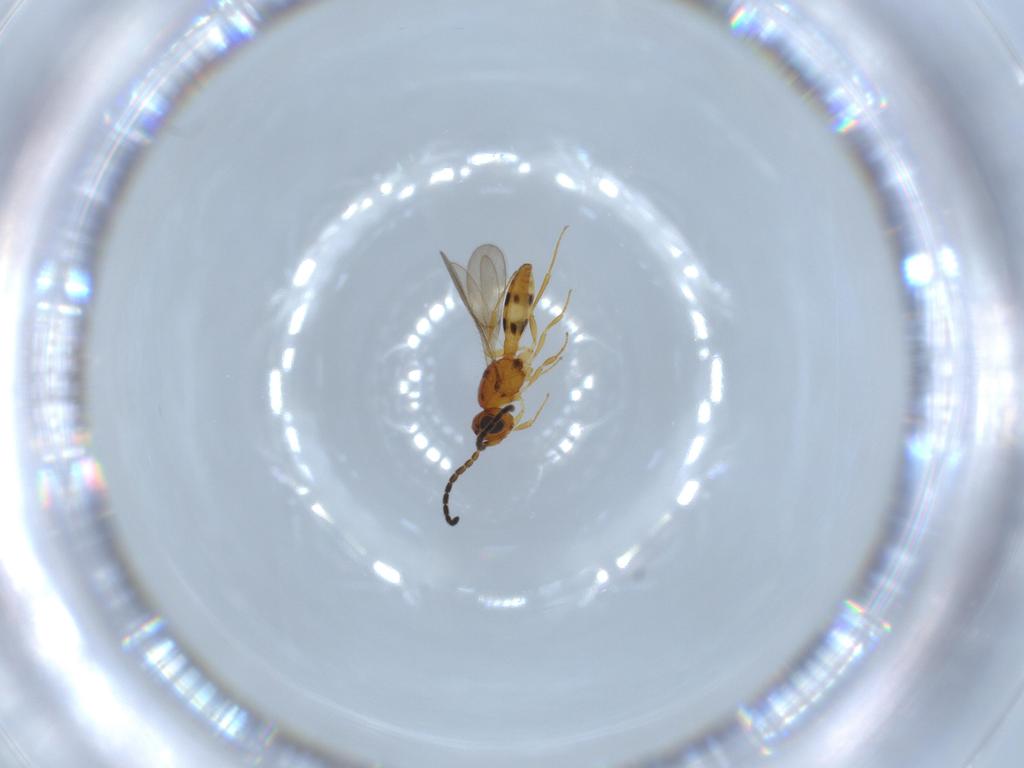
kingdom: Animalia
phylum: Arthropoda
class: Insecta
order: Hymenoptera
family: Scelionidae
